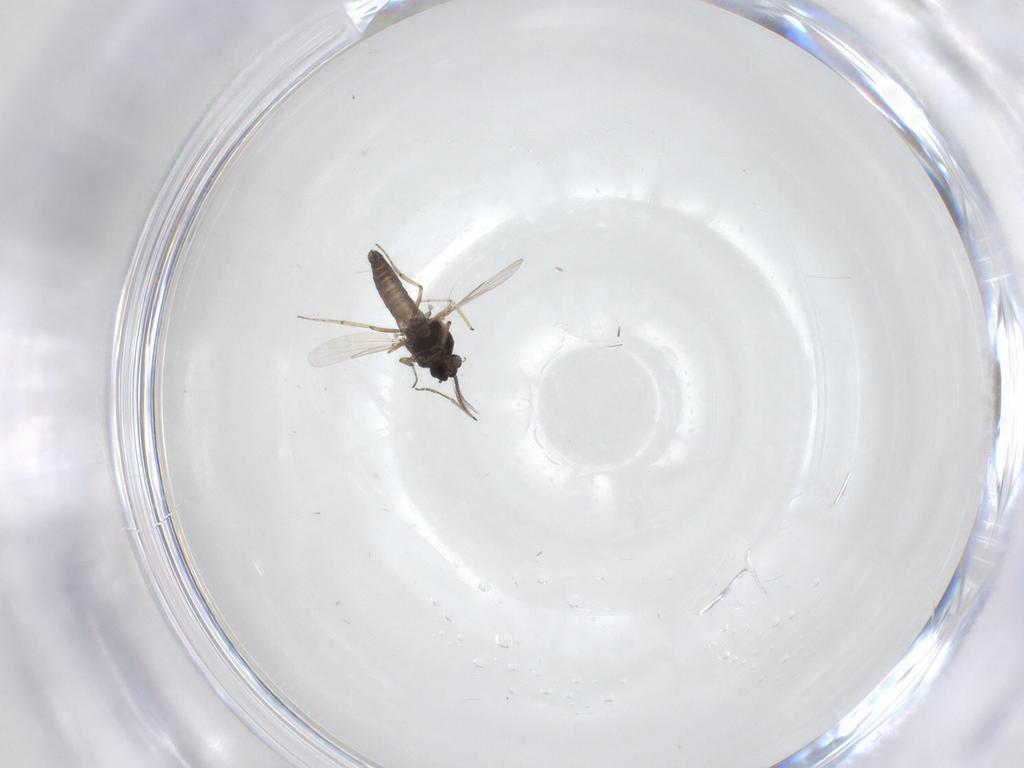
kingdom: Animalia
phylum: Arthropoda
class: Insecta
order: Diptera
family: Ceratopogonidae
